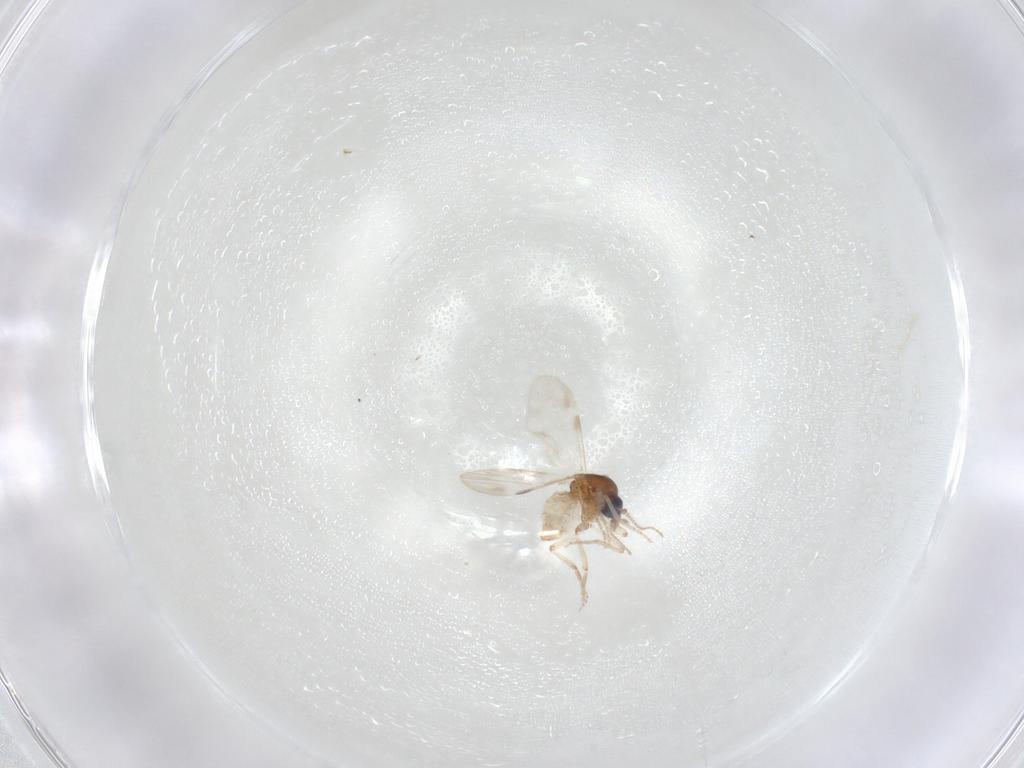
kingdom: Animalia
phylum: Arthropoda
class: Insecta
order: Diptera
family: Ceratopogonidae
